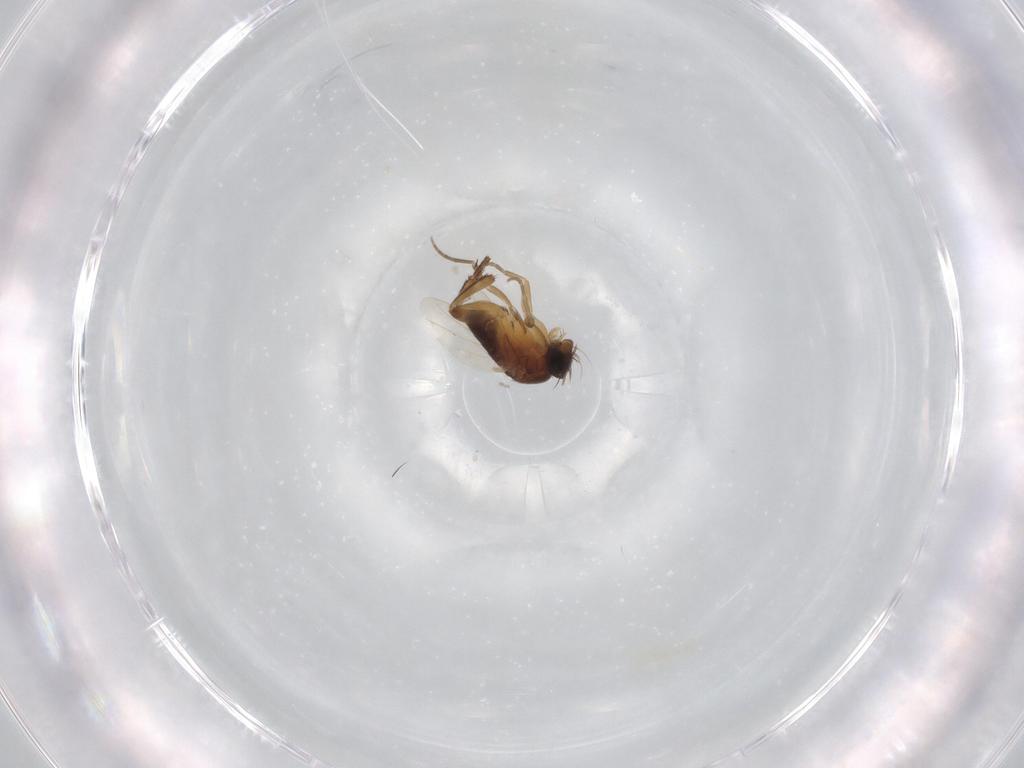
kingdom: Animalia
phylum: Arthropoda
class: Insecta
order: Diptera
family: Phoridae
